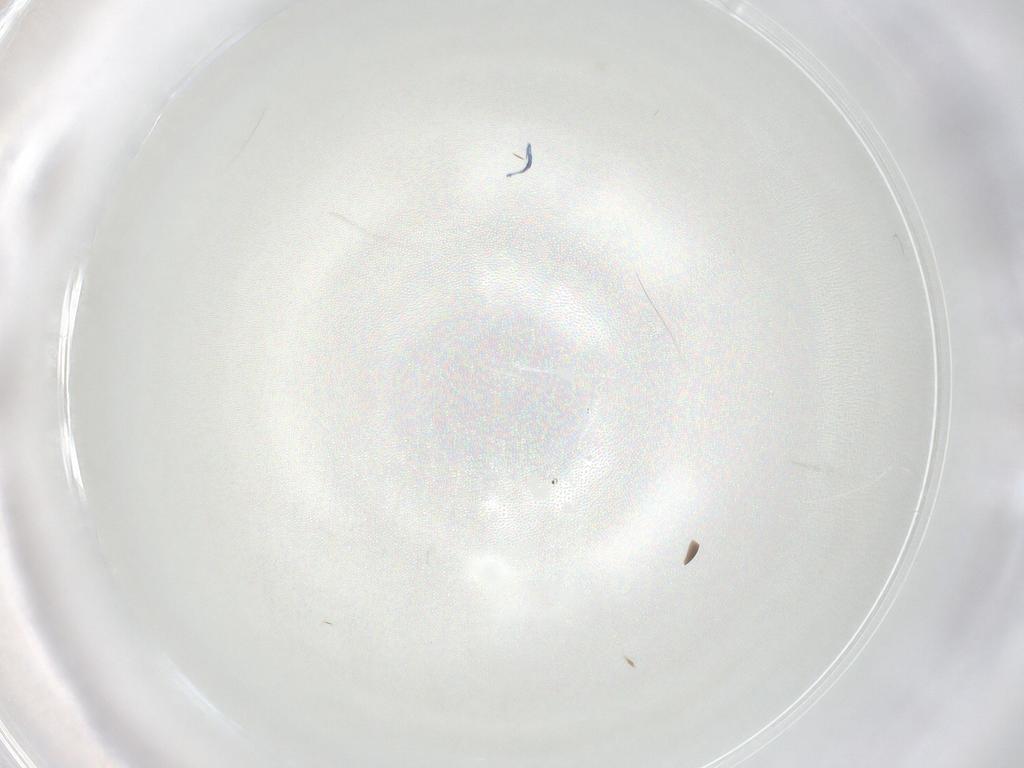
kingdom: Animalia
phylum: Arthropoda
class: Insecta
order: Hymenoptera
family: Scelionidae
